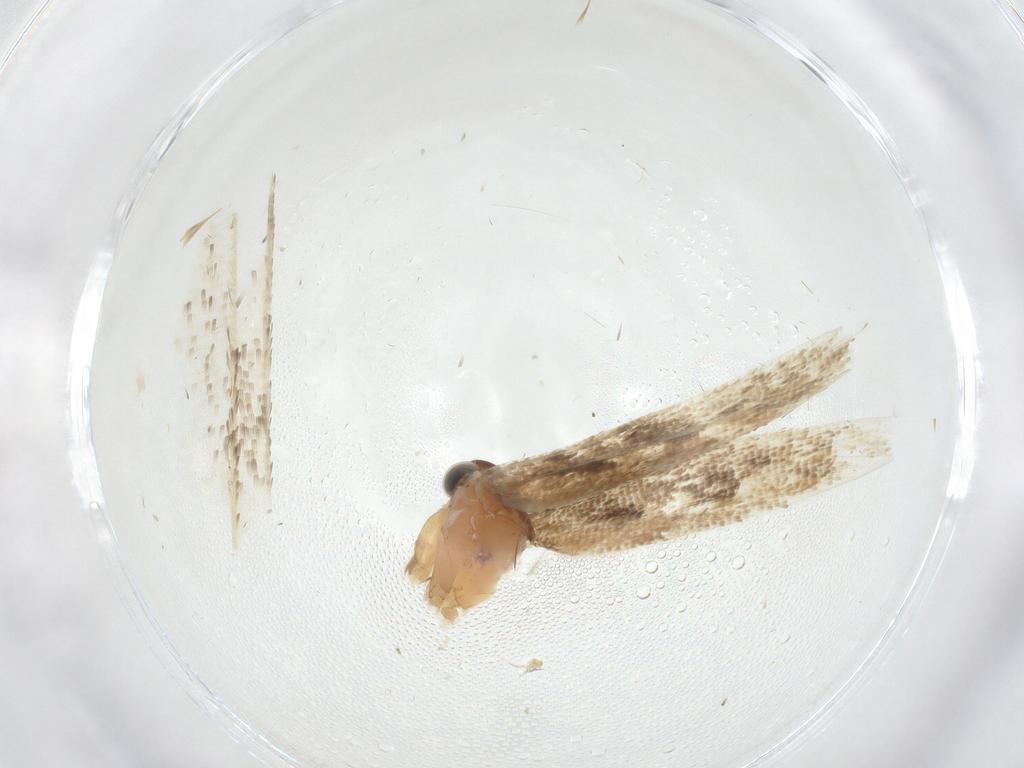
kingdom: Animalia
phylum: Arthropoda
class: Insecta
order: Lepidoptera
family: Gelechiidae
